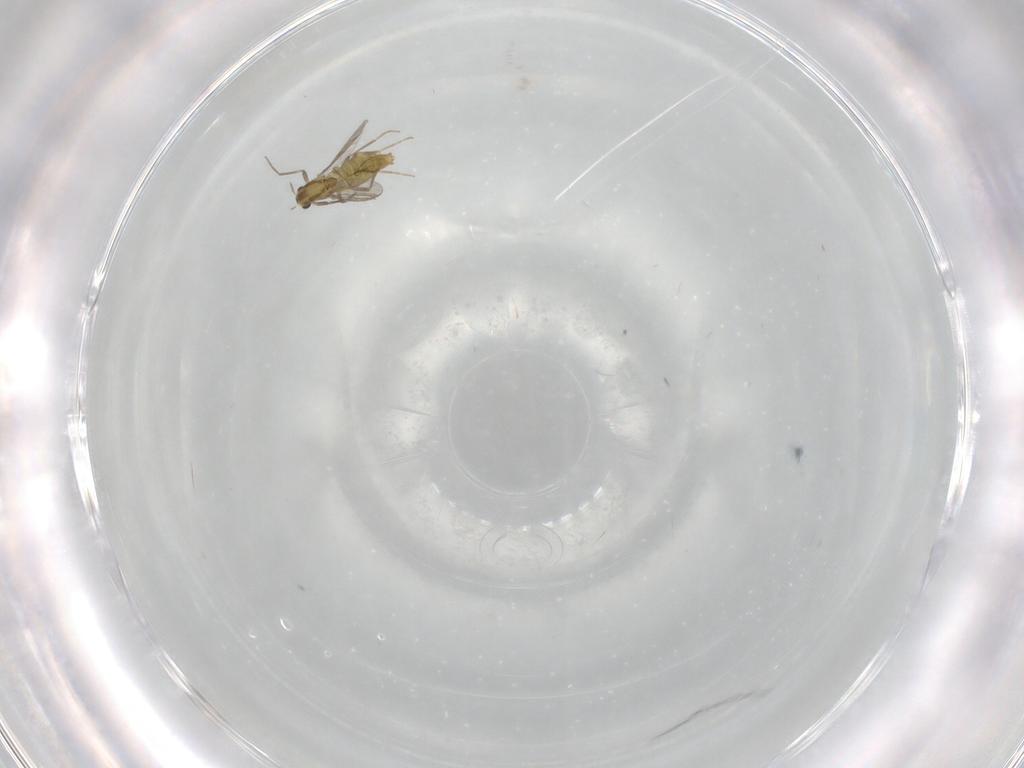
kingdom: Animalia
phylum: Arthropoda
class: Insecta
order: Diptera
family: Chironomidae
